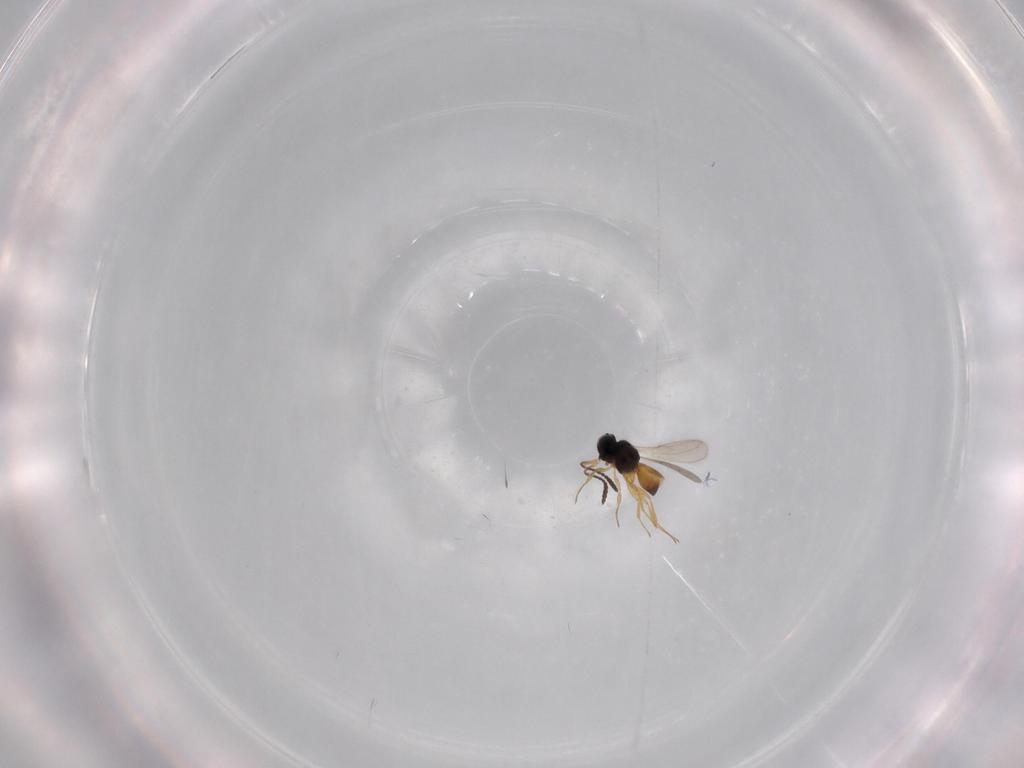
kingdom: Animalia
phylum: Arthropoda
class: Insecta
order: Hymenoptera
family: Scelionidae
